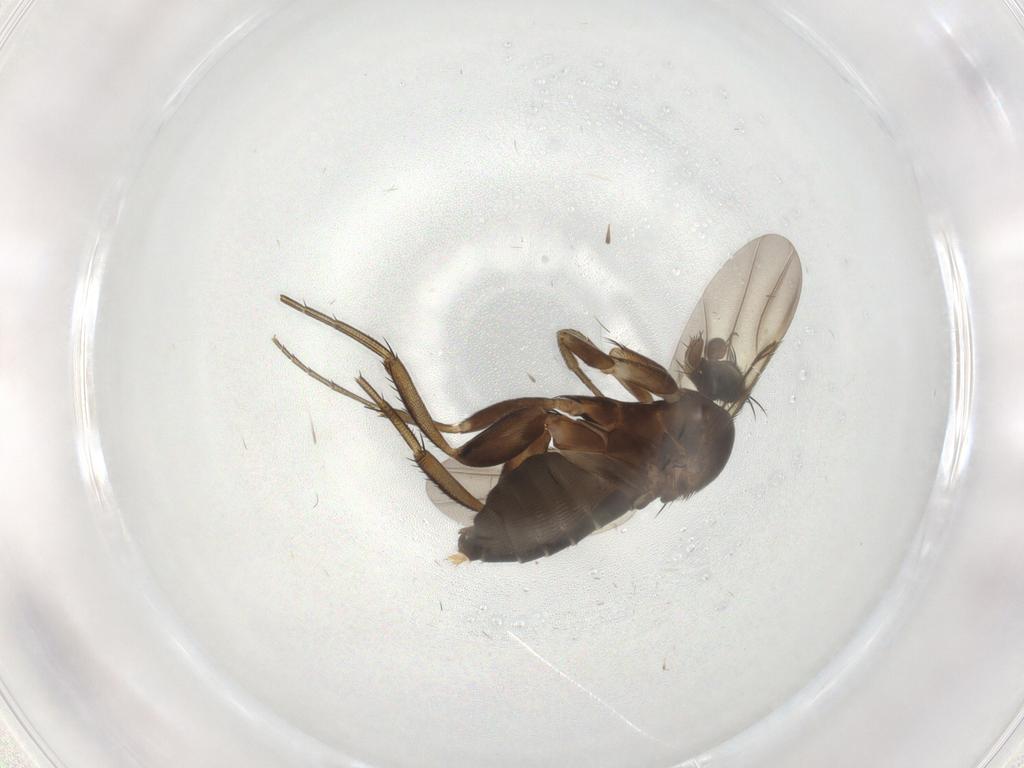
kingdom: Animalia
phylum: Arthropoda
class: Insecta
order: Diptera
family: Phoridae
